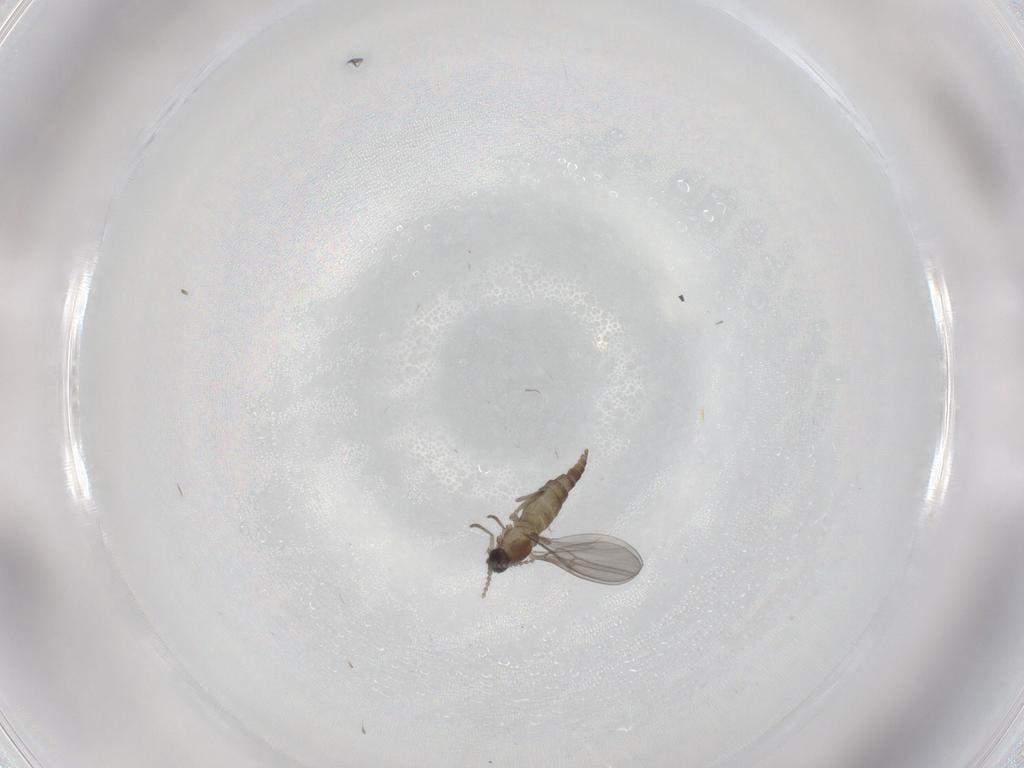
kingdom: Animalia
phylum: Arthropoda
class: Insecta
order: Diptera
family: Cecidomyiidae
